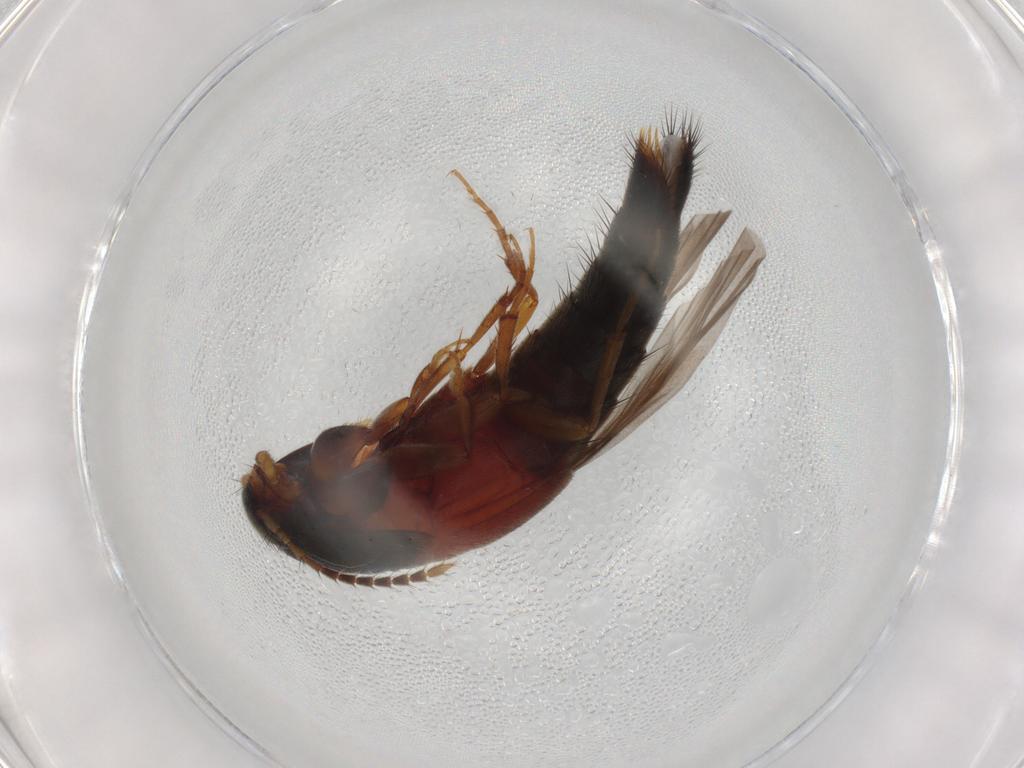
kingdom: Animalia
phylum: Arthropoda
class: Insecta
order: Coleoptera
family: Staphylinidae
